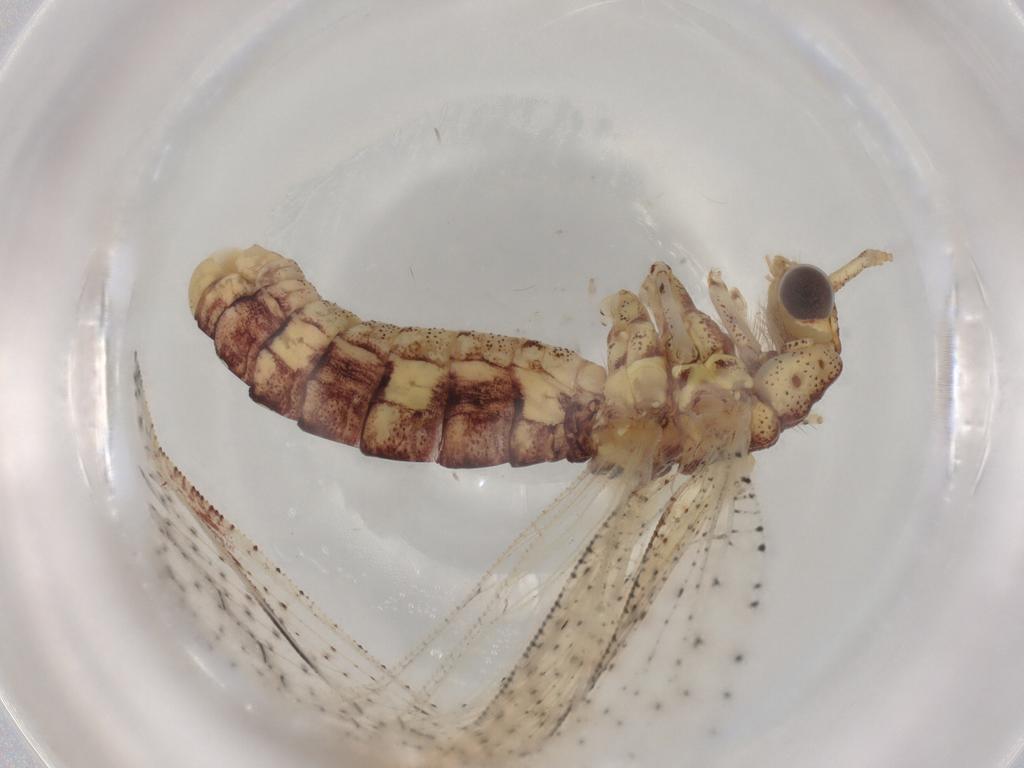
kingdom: Animalia
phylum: Arthropoda
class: Insecta
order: Neuroptera
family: Berothidae
